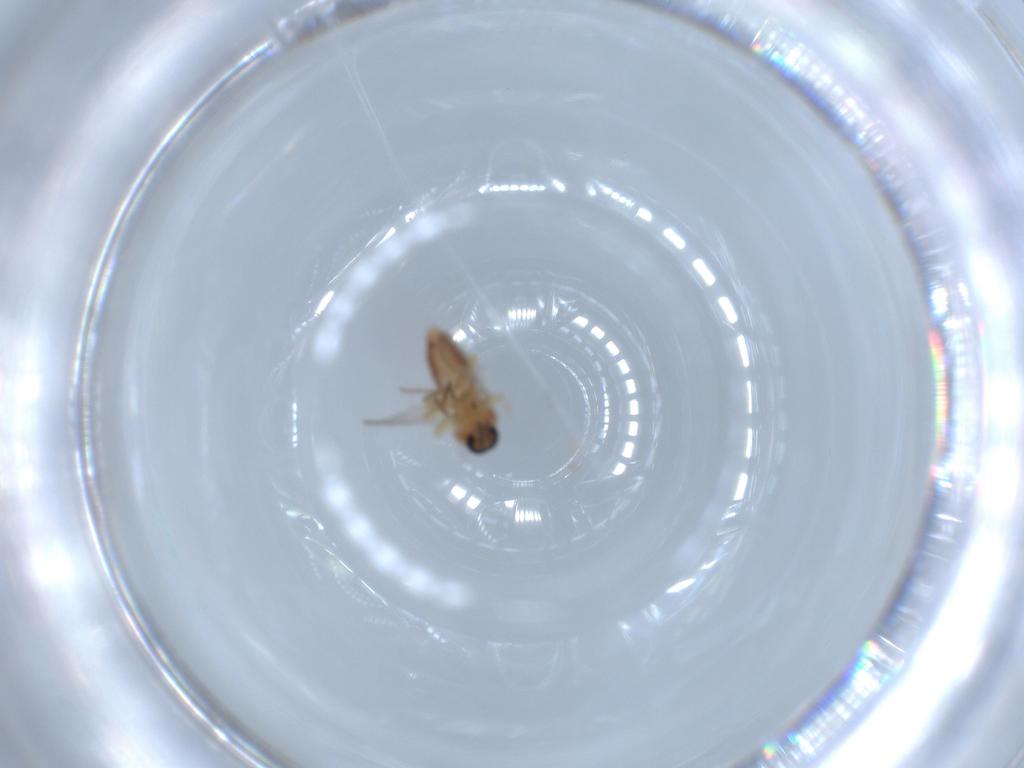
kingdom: Animalia
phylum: Arthropoda
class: Insecta
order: Diptera
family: Ceratopogonidae
